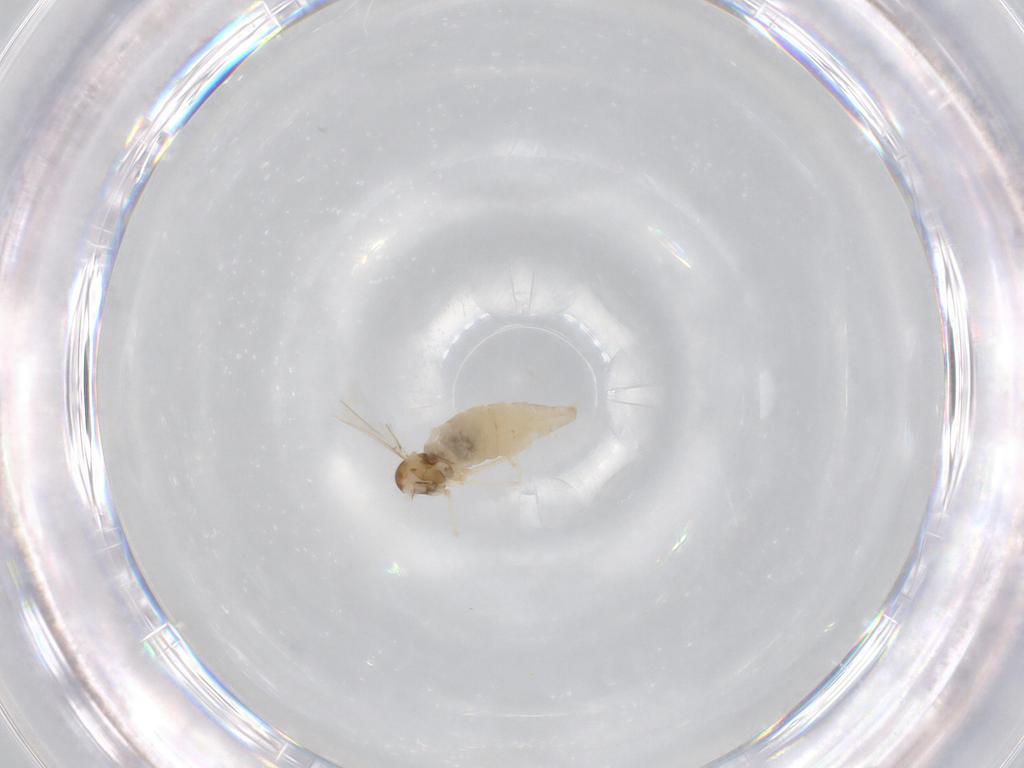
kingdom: Animalia
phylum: Arthropoda
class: Insecta
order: Diptera
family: Cecidomyiidae
